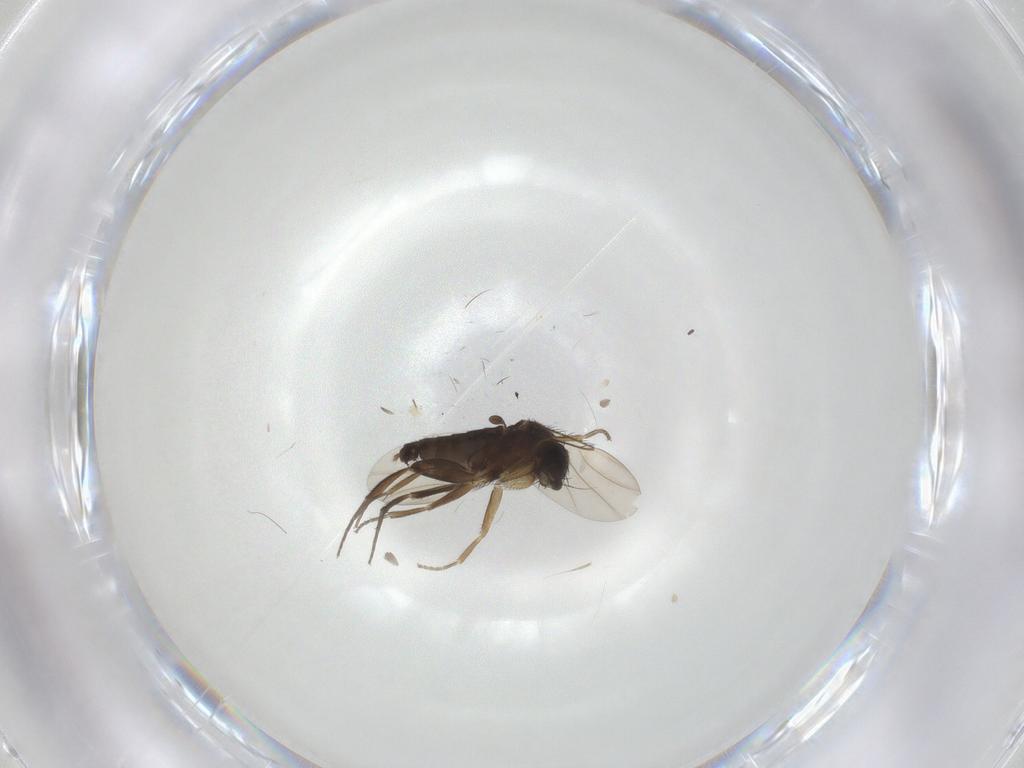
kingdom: Animalia
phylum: Arthropoda
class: Insecta
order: Diptera
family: Phoridae
